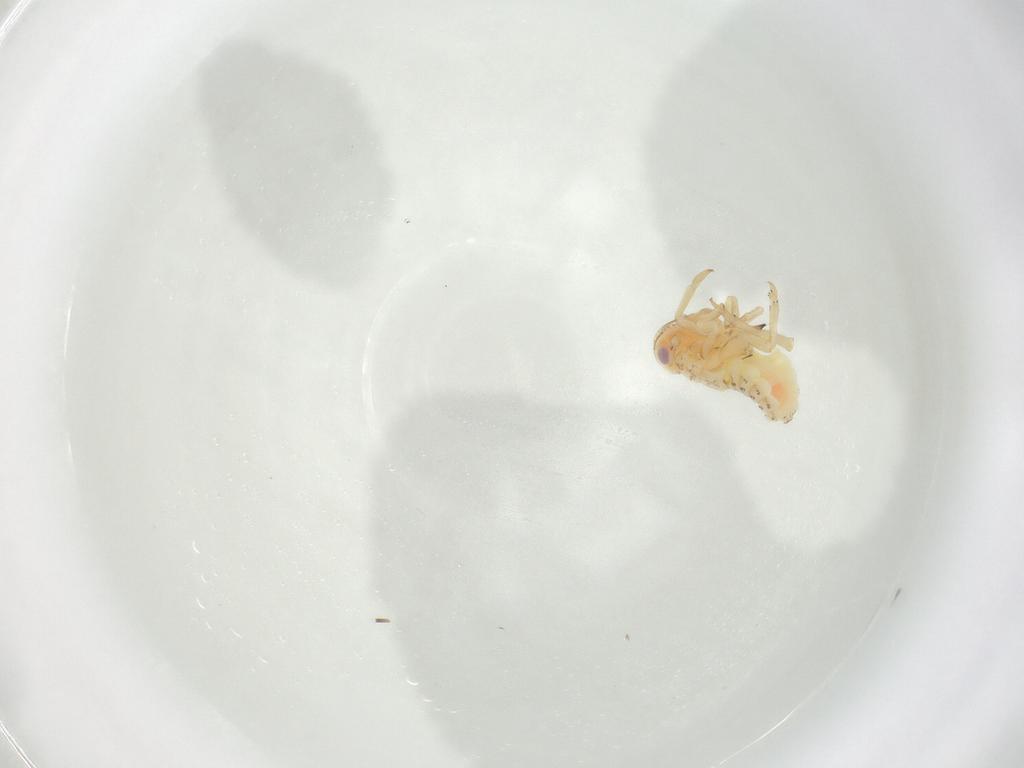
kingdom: Animalia
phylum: Arthropoda
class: Insecta
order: Hemiptera
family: Tropiduchidae
